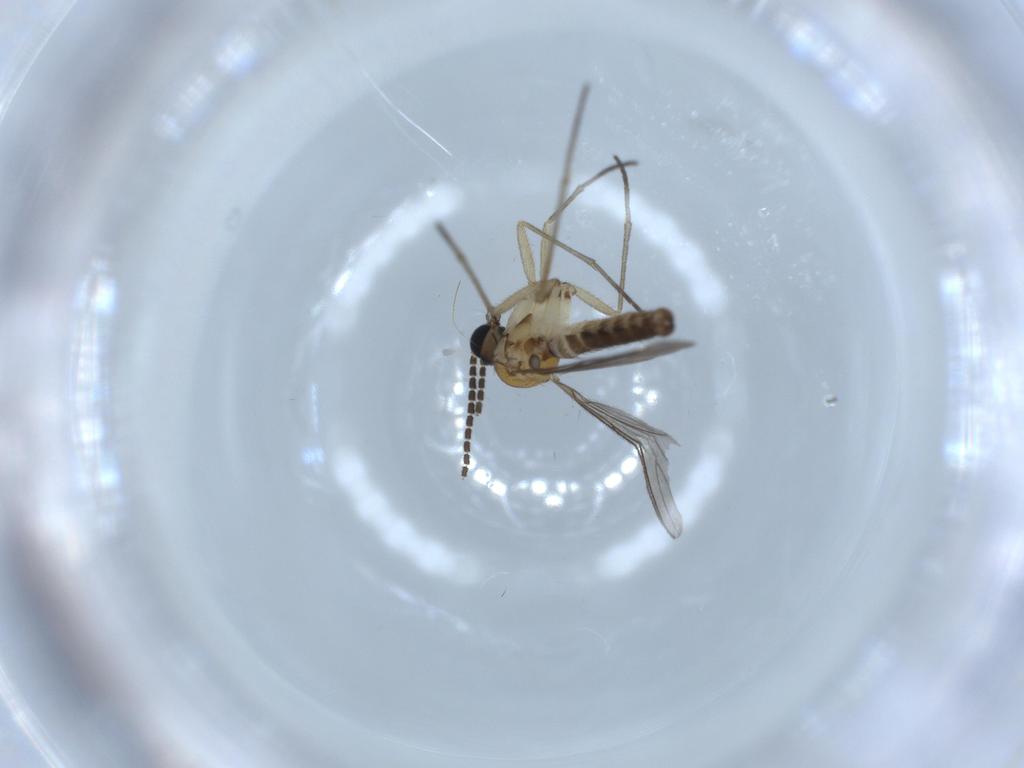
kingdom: Animalia
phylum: Arthropoda
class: Insecta
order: Diptera
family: Sciaridae
